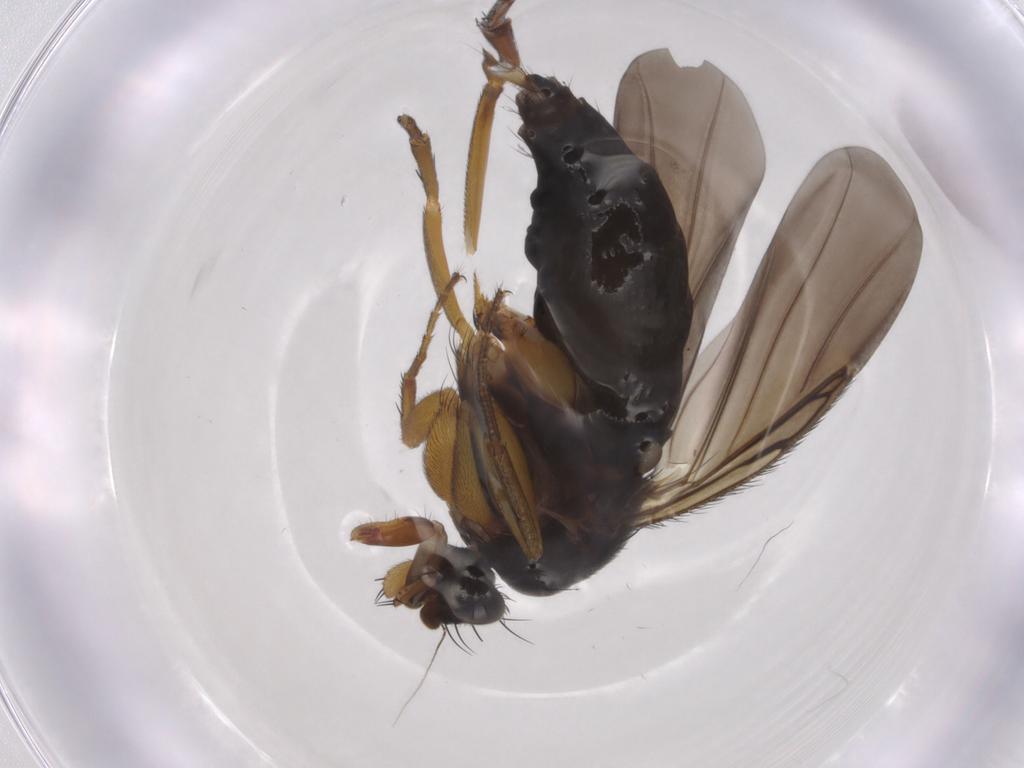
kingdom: Animalia
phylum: Arthropoda
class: Insecta
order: Diptera
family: Phoridae
